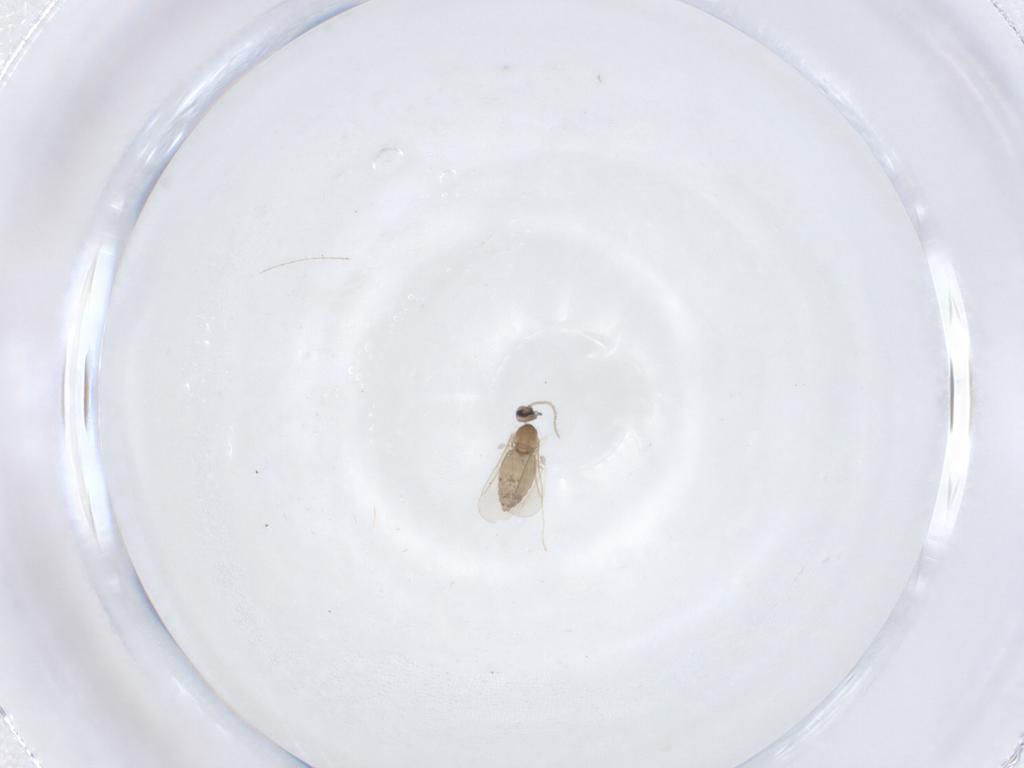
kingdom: Animalia
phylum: Arthropoda
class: Insecta
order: Diptera
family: Cecidomyiidae
